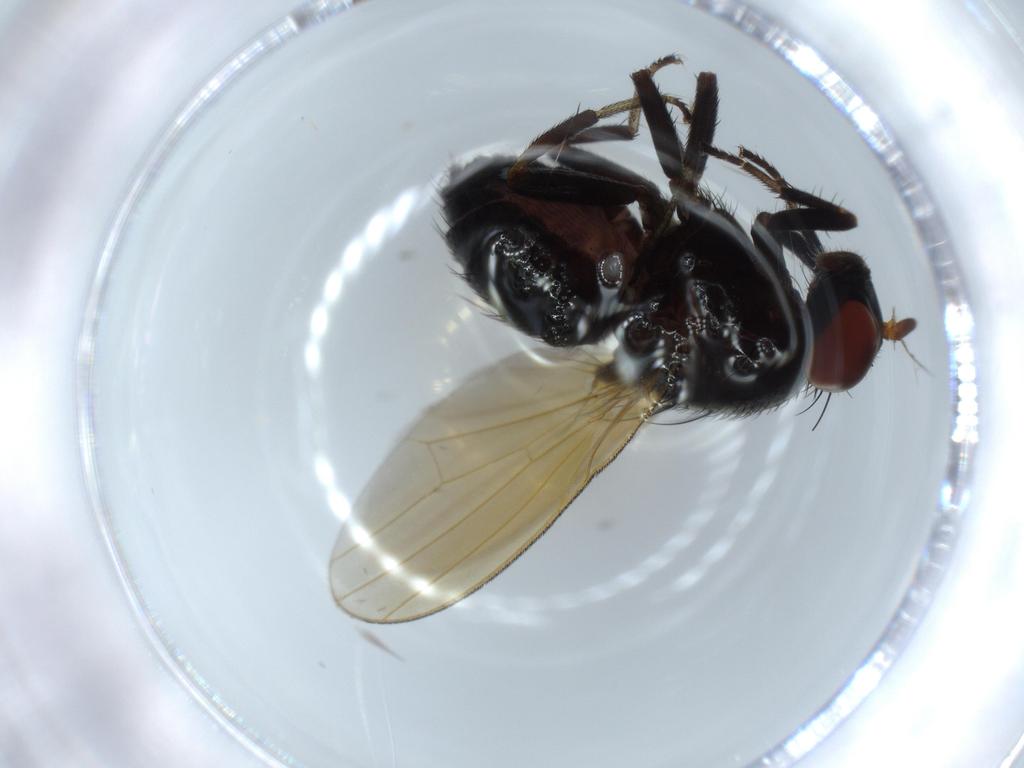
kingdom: Animalia
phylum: Arthropoda
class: Insecta
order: Diptera
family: Lauxaniidae
